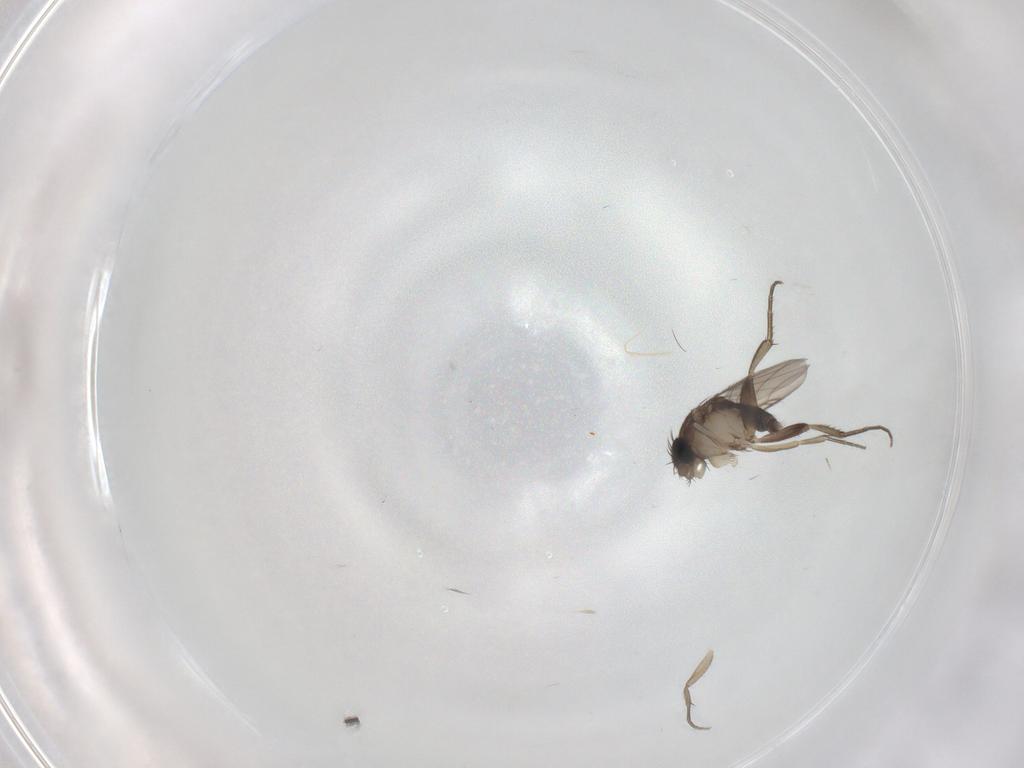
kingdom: Animalia
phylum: Arthropoda
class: Insecta
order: Diptera
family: Phoridae
